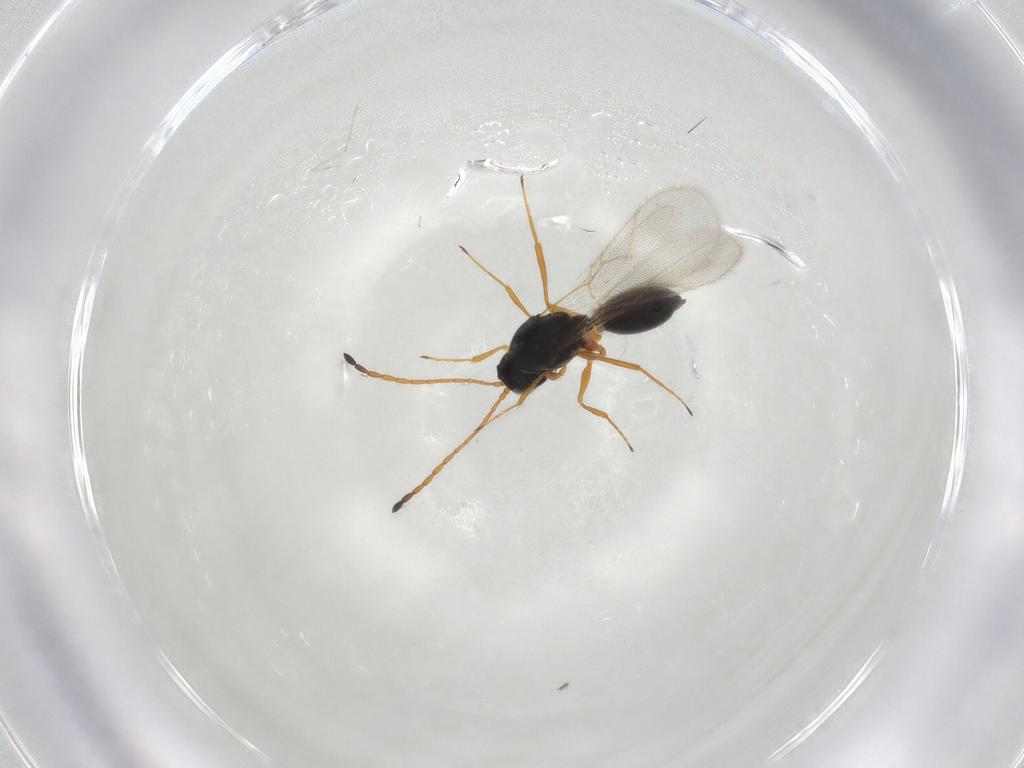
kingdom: Animalia
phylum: Arthropoda
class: Insecta
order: Hymenoptera
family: Figitidae
